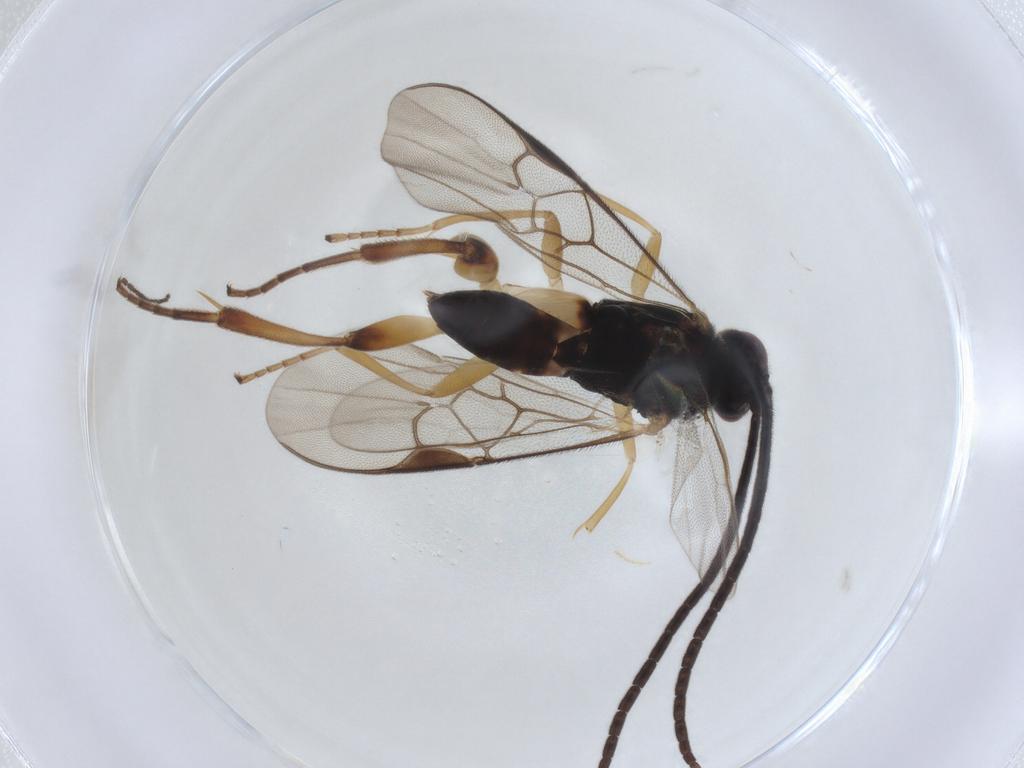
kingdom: Animalia
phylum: Arthropoda
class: Insecta
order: Hymenoptera
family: Braconidae
